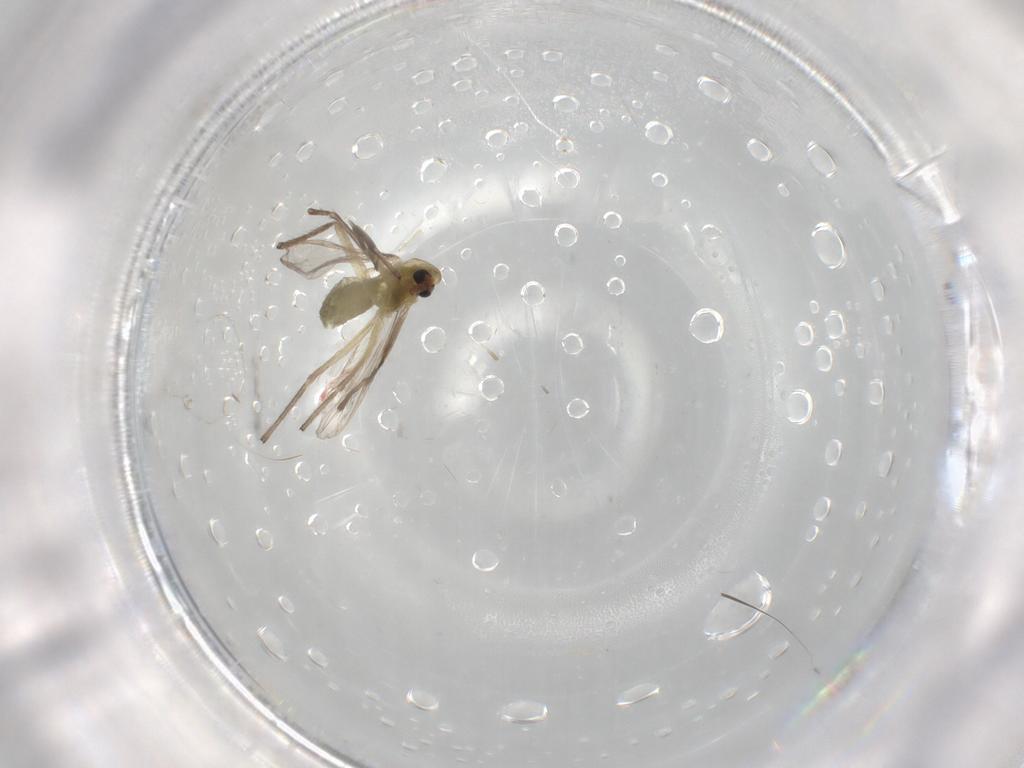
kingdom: Animalia
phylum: Arthropoda
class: Insecta
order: Diptera
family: Chironomidae
